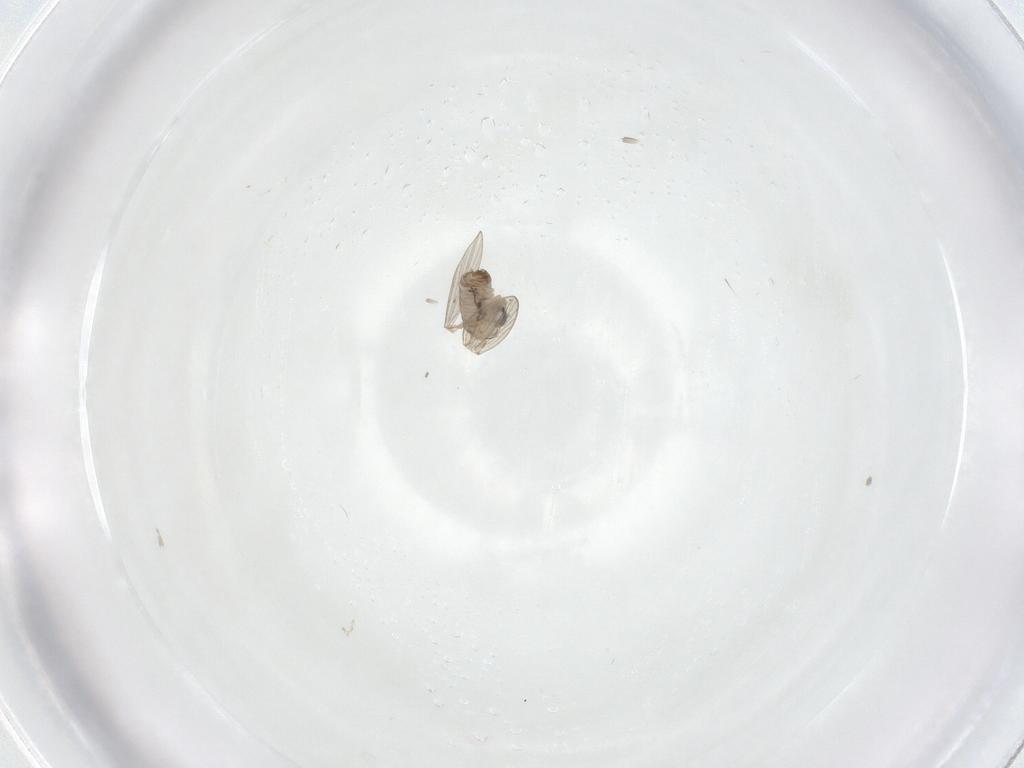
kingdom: Animalia
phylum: Arthropoda
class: Insecta
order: Diptera
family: Psychodidae
